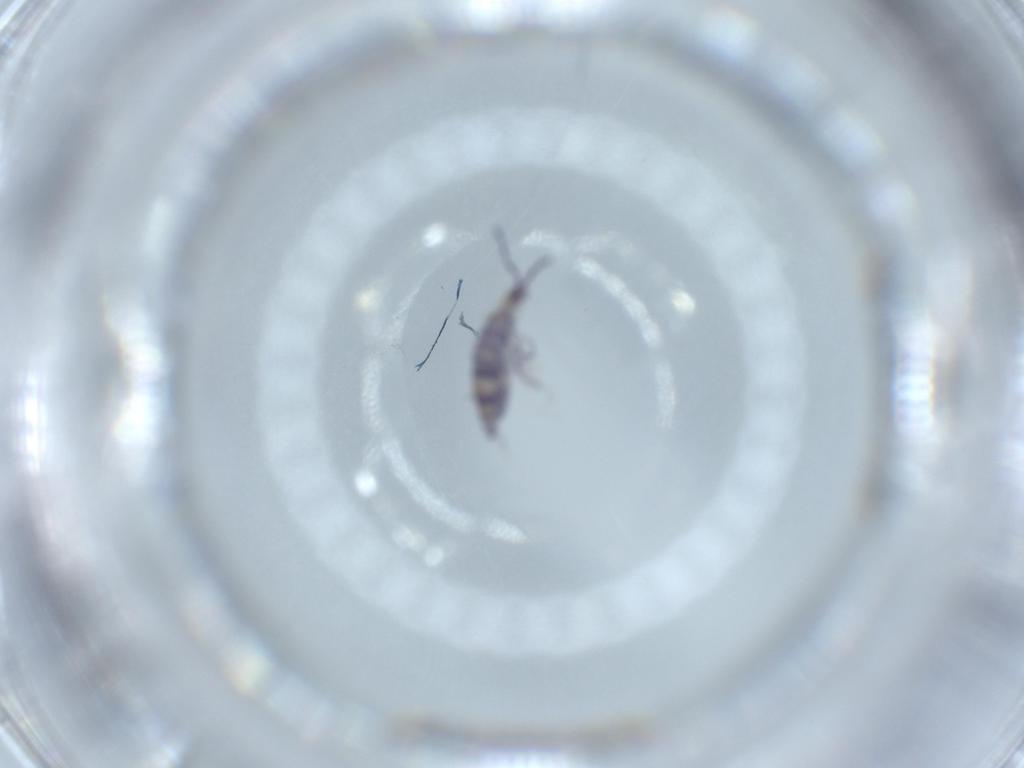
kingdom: Animalia
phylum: Arthropoda
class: Collembola
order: Entomobryomorpha
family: Entomobryidae
